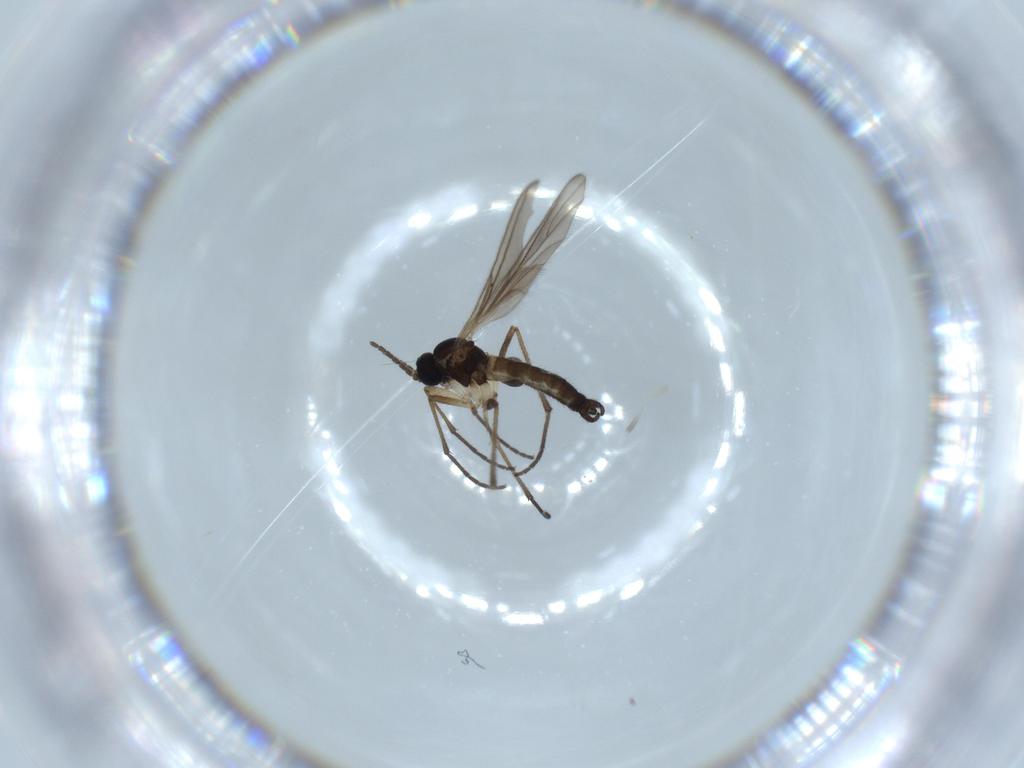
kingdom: Animalia
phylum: Arthropoda
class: Insecta
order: Diptera
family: Sciaridae
